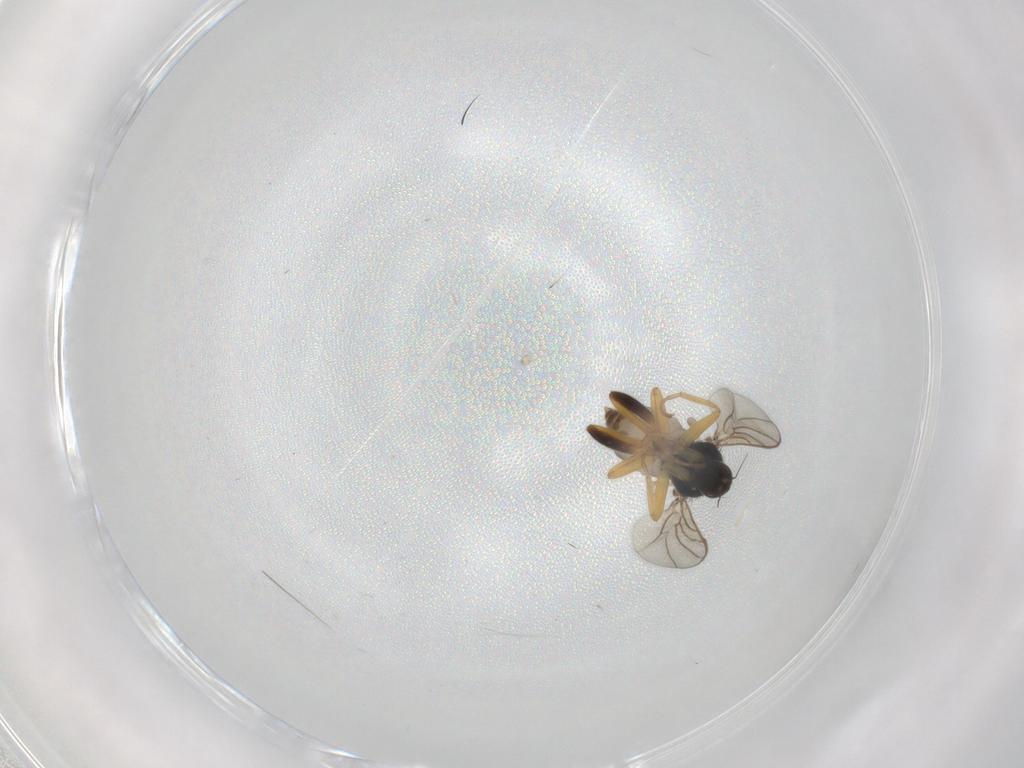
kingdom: Animalia
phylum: Arthropoda
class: Insecta
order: Diptera
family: Hybotidae
